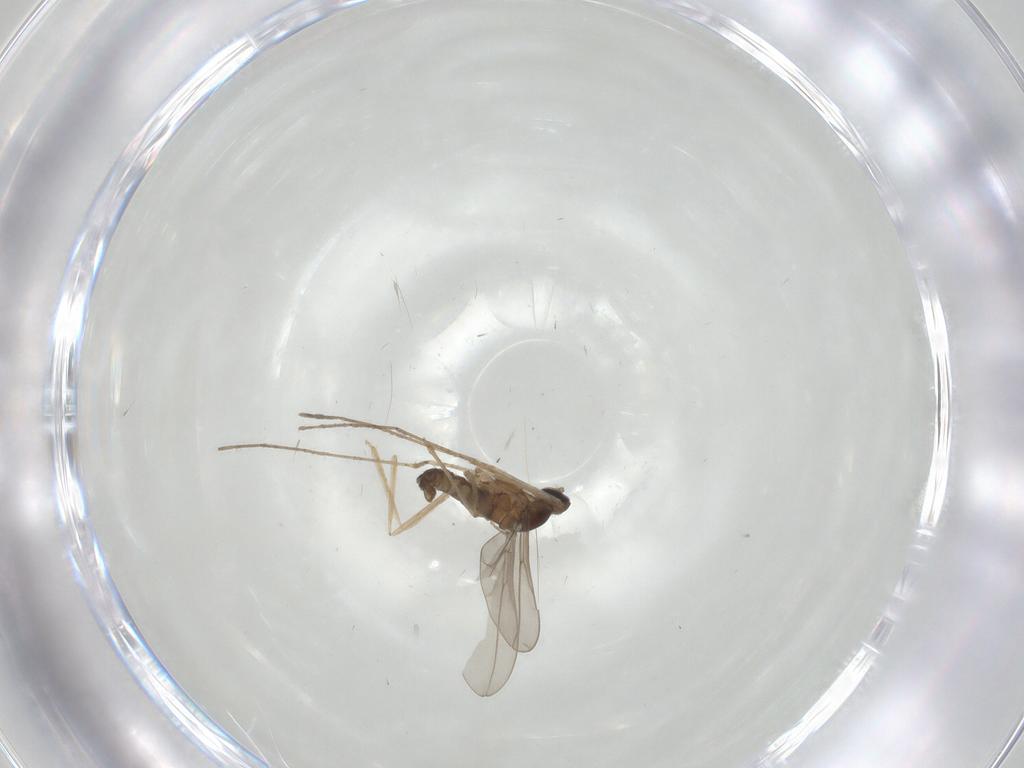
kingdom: Animalia
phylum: Arthropoda
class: Insecta
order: Diptera
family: Cecidomyiidae
